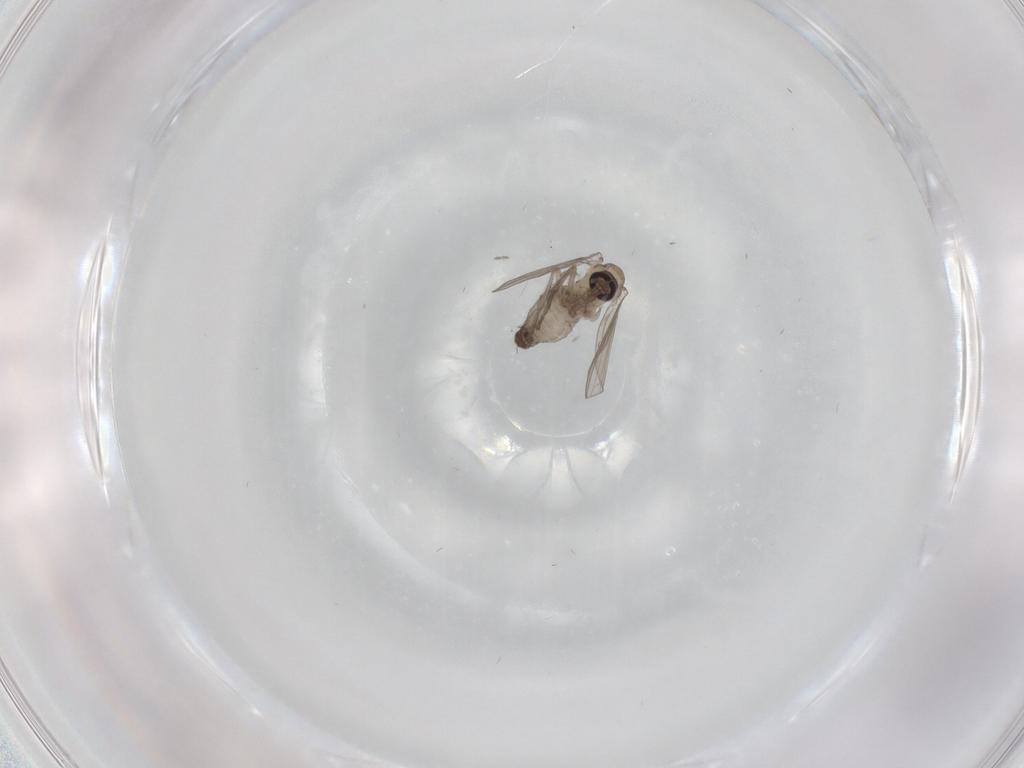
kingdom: Animalia
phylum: Arthropoda
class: Insecta
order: Diptera
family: Psychodidae
